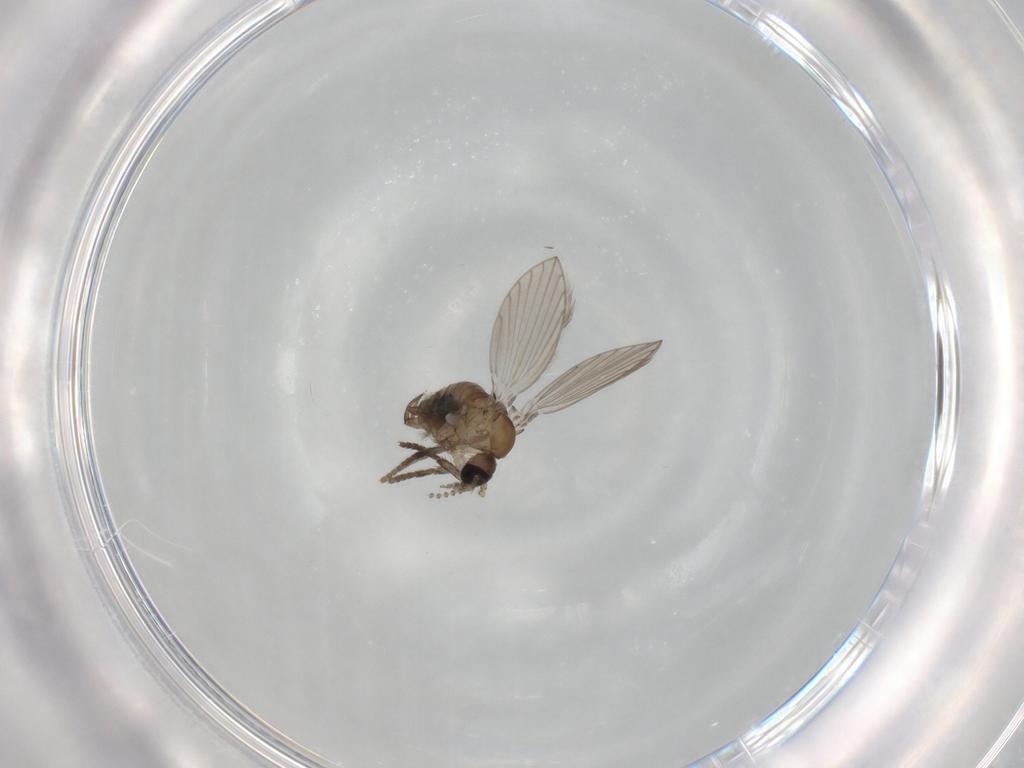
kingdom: Animalia
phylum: Arthropoda
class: Insecta
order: Diptera
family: Psychodidae
